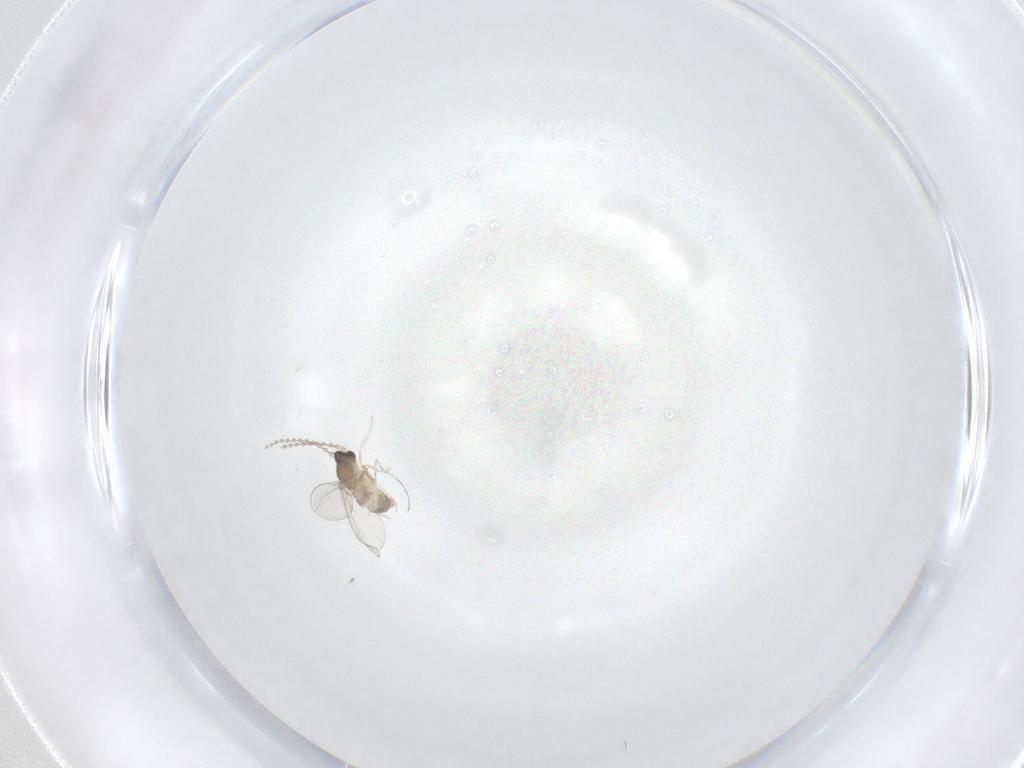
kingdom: Animalia
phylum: Arthropoda
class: Insecta
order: Diptera
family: Cecidomyiidae
